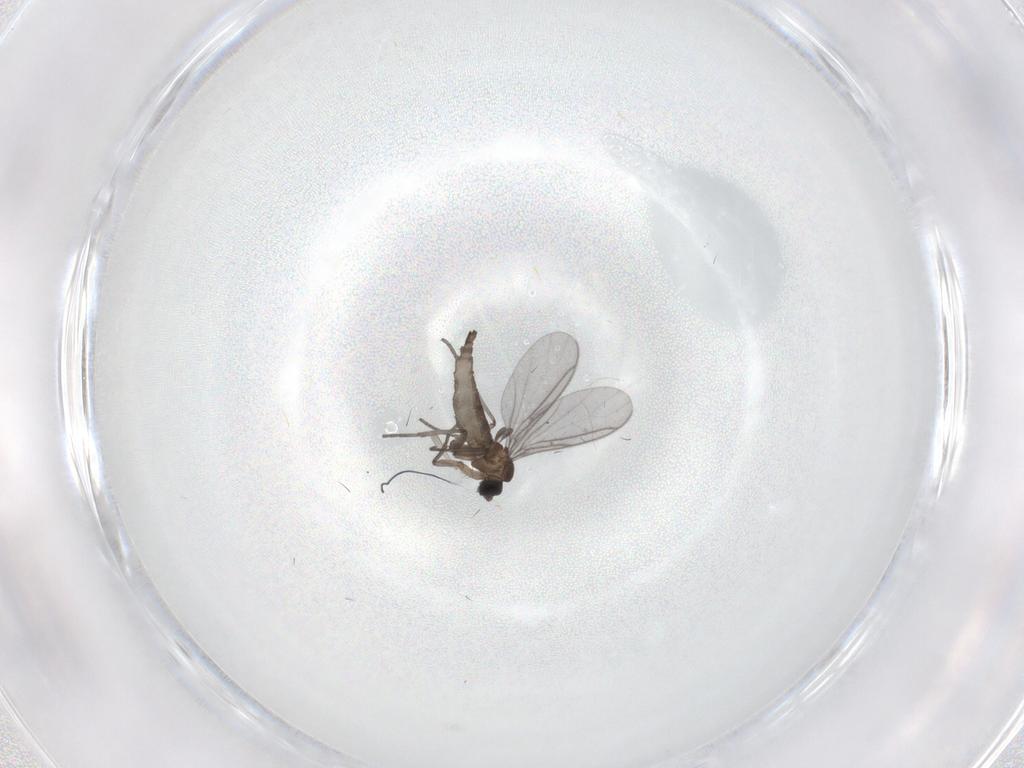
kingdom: Animalia
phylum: Arthropoda
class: Insecta
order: Diptera
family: Sciaridae
